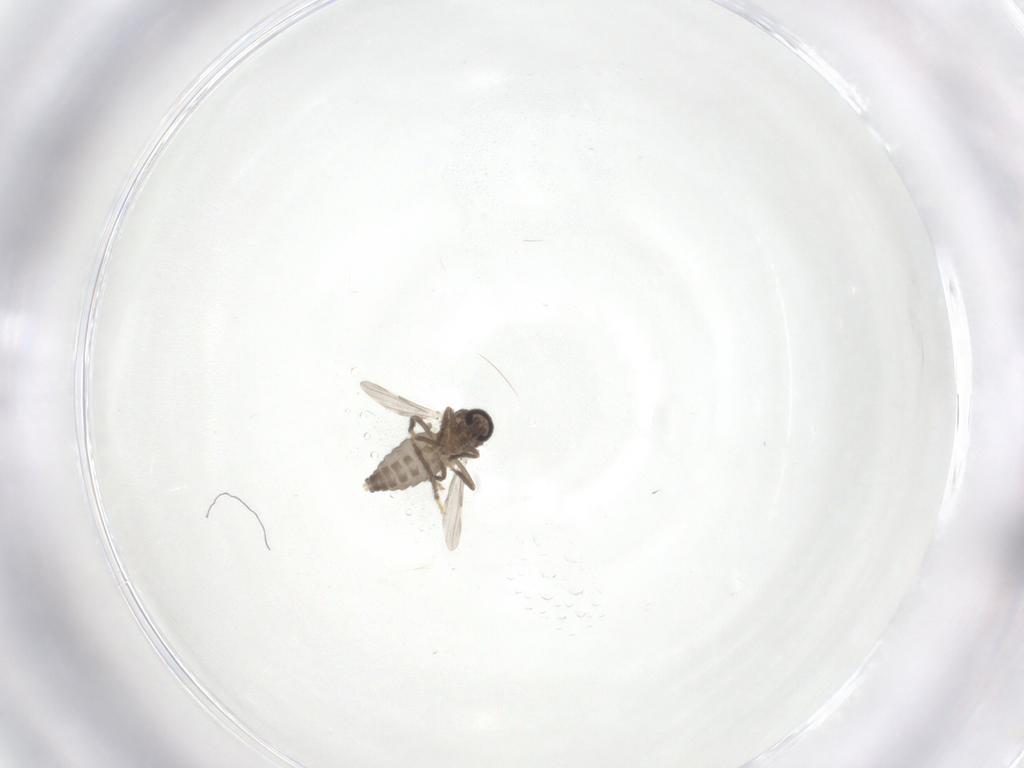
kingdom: Animalia
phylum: Arthropoda
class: Insecta
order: Diptera
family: Ceratopogonidae
